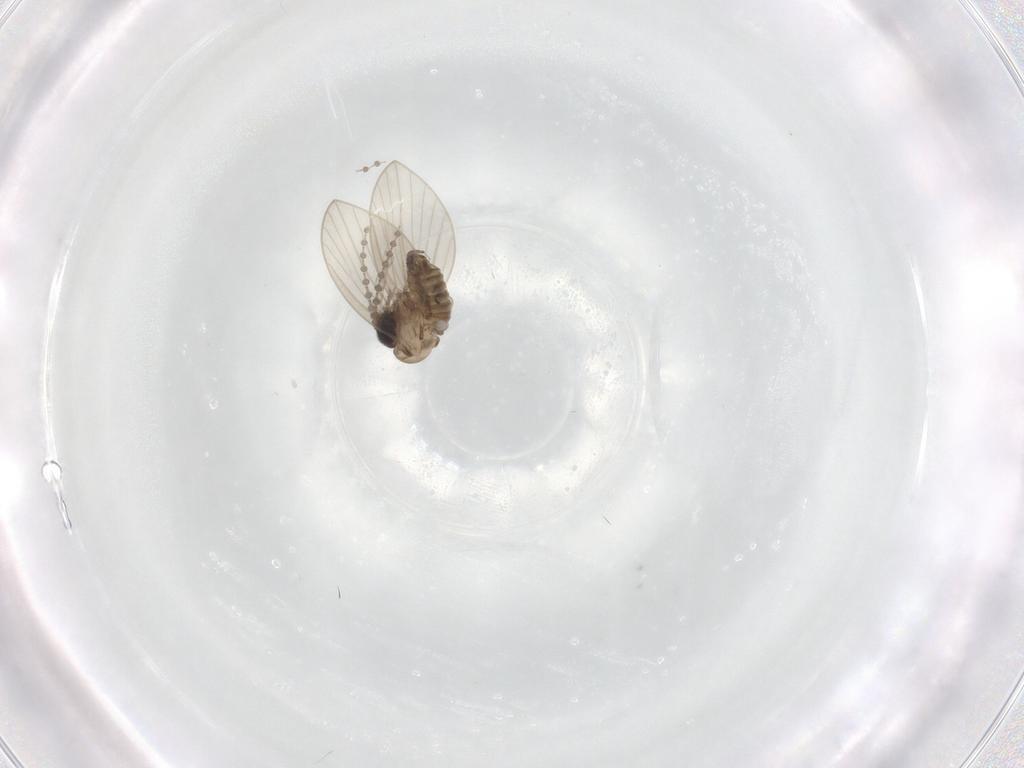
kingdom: Animalia
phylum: Arthropoda
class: Insecta
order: Diptera
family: Psychodidae
